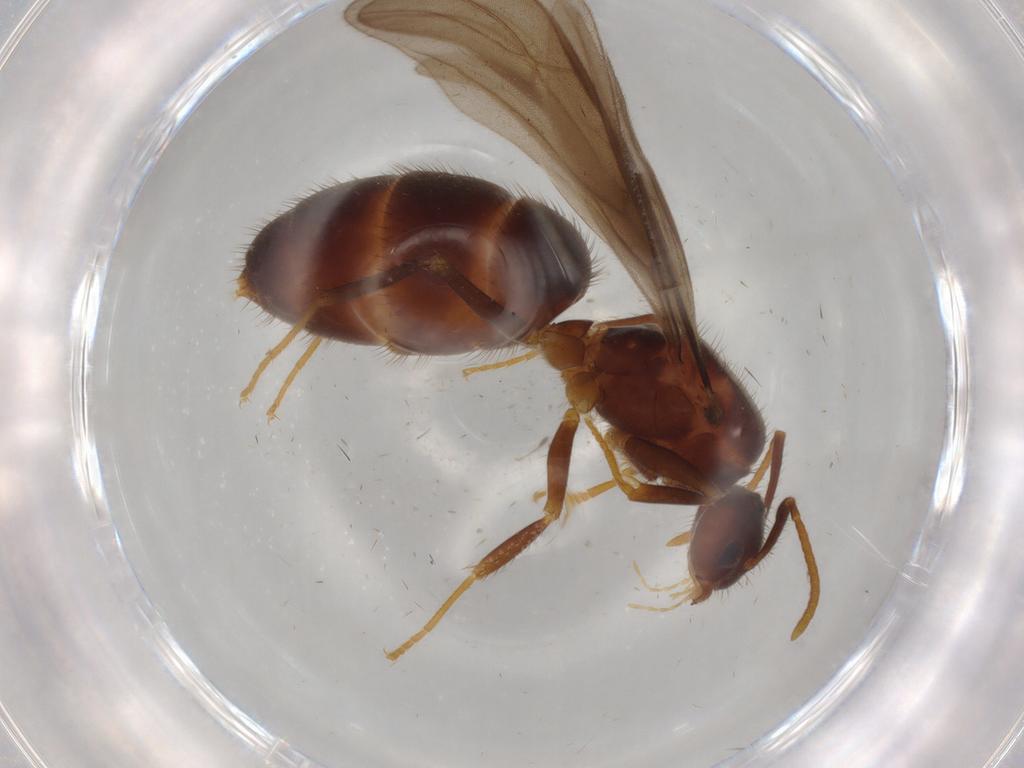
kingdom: Animalia
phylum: Arthropoda
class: Insecta
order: Hymenoptera
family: Formicidae
